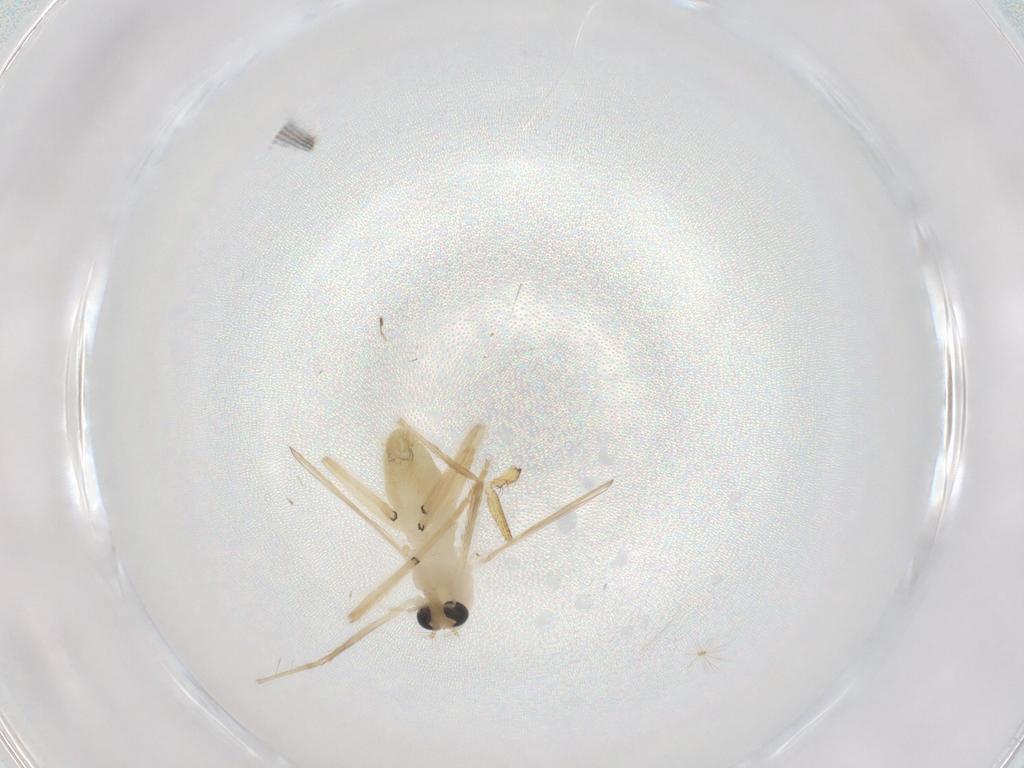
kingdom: Animalia
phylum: Arthropoda
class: Insecta
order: Diptera
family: Chironomidae
